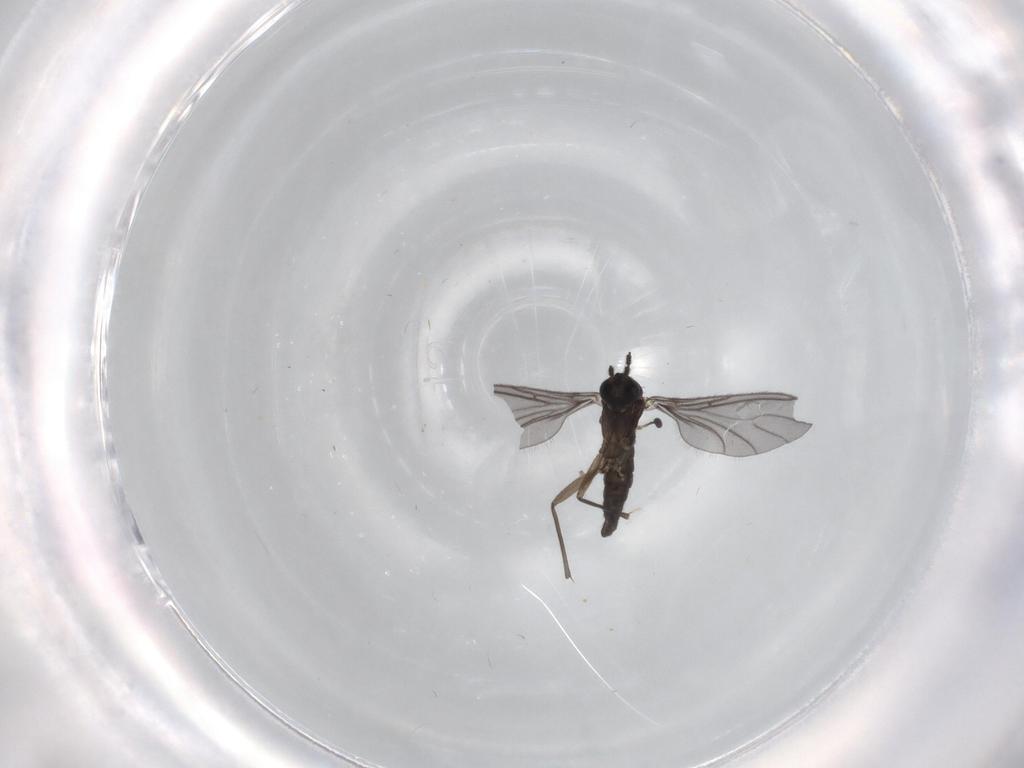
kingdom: Animalia
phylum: Arthropoda
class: Insecta
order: Diptera
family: Sciaridae
